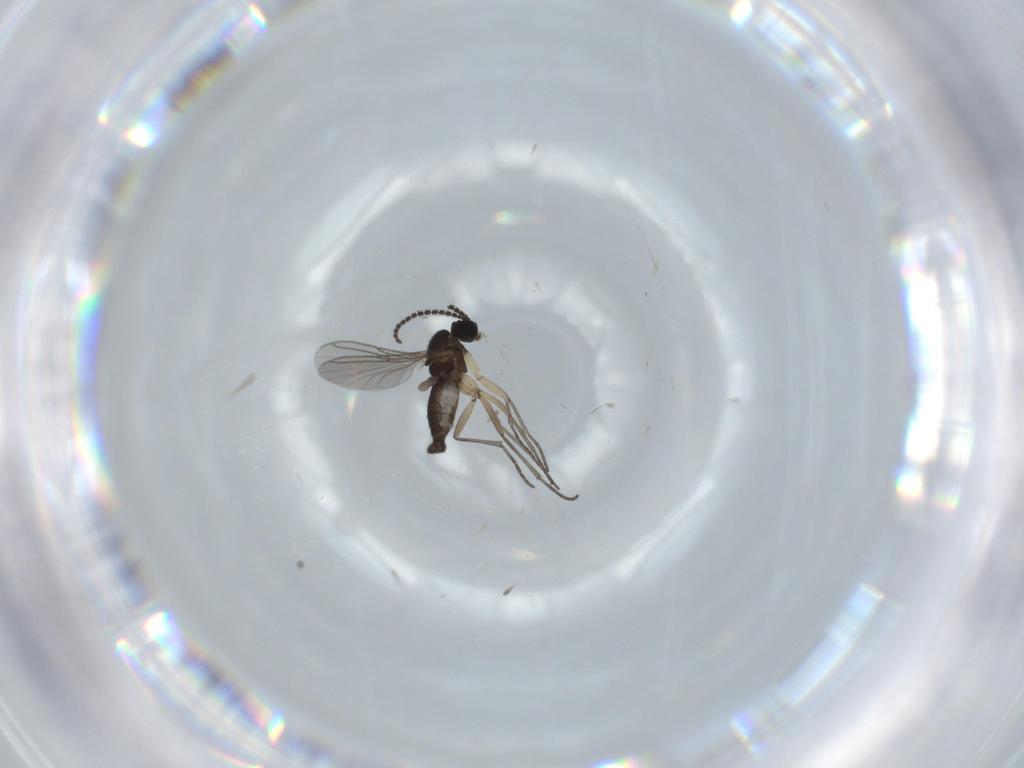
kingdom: Animalia
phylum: Arthropoda
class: Insecta
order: Diptera
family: Sciaridae
